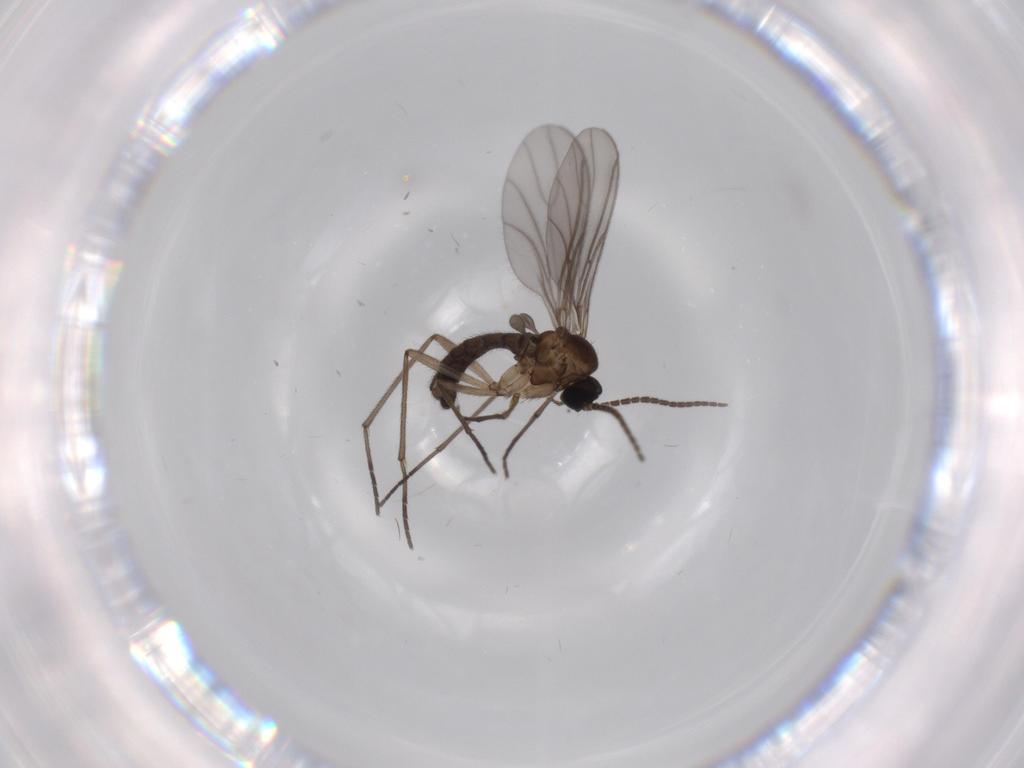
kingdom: Animalia
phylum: Arthropoda
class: Insecta
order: Diptera
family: Sciaridae
